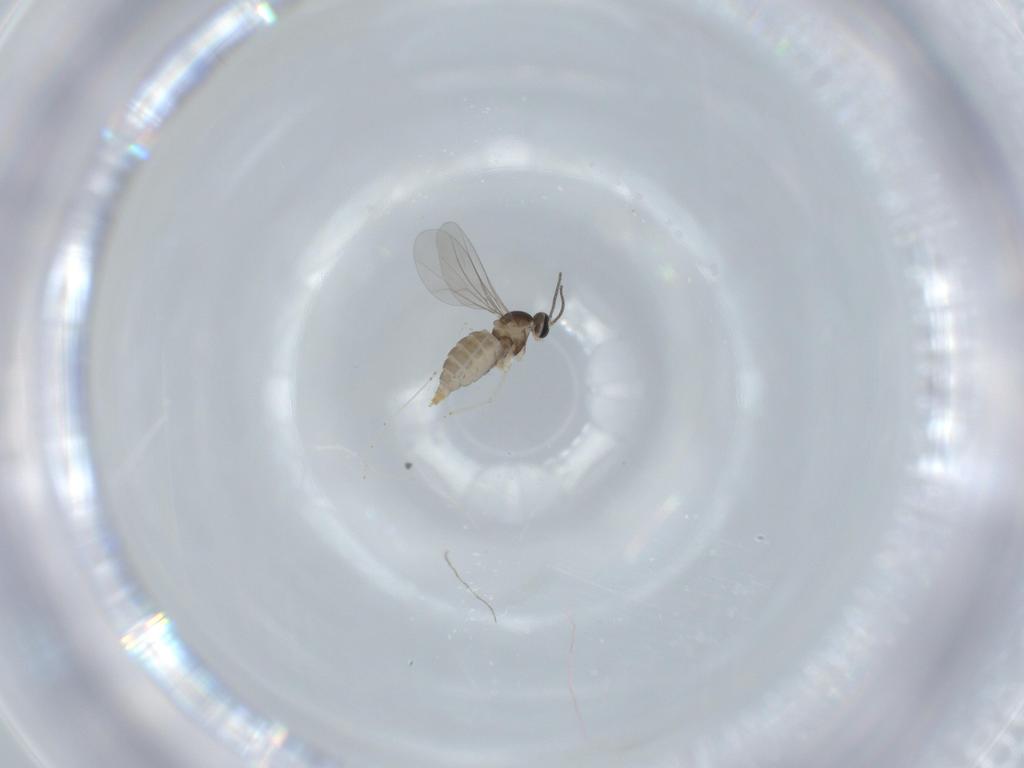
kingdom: Animalia
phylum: Arthropoda
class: Insecta
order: Diptera
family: Cecidomyiidae
